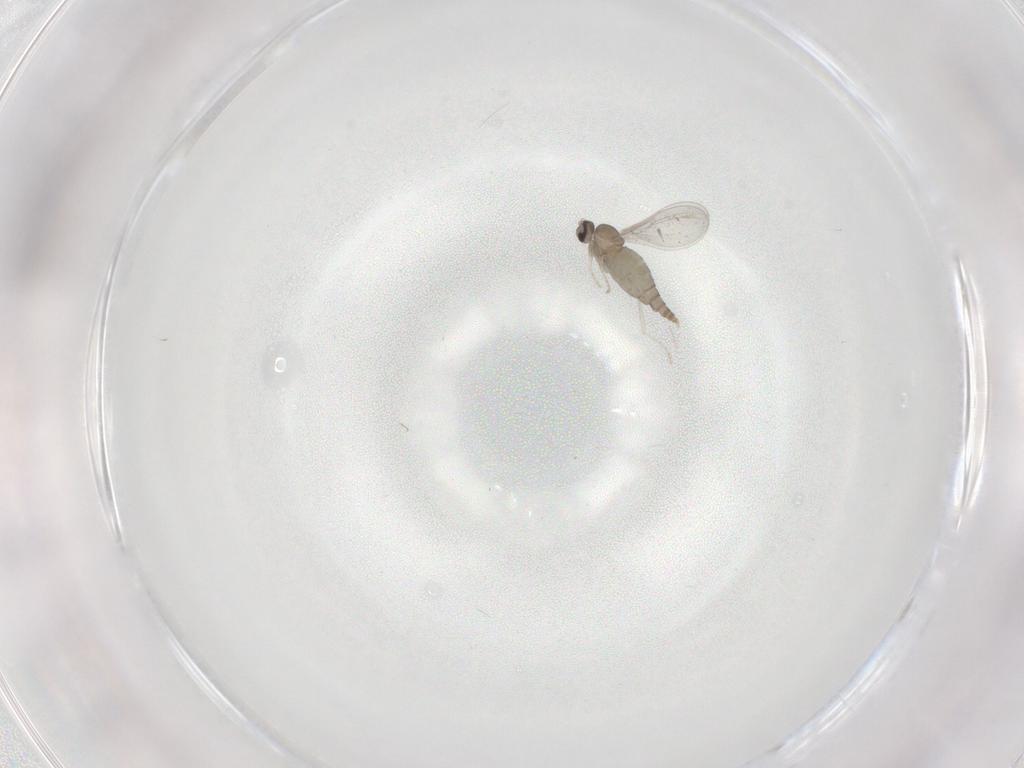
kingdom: Animalia
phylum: Arthropoda
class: Insecta
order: Diptera
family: Cecidomyiidae
